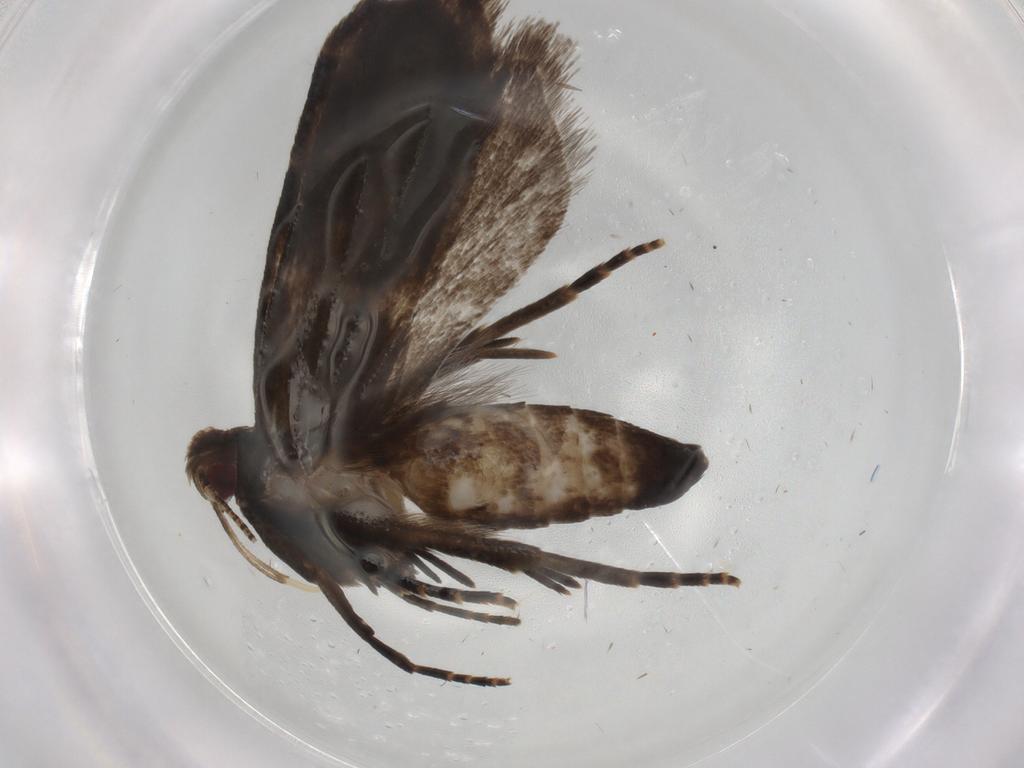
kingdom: Animalia
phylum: Arthropoda
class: Insecta
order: Lepidoptera
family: Gelechiidae
